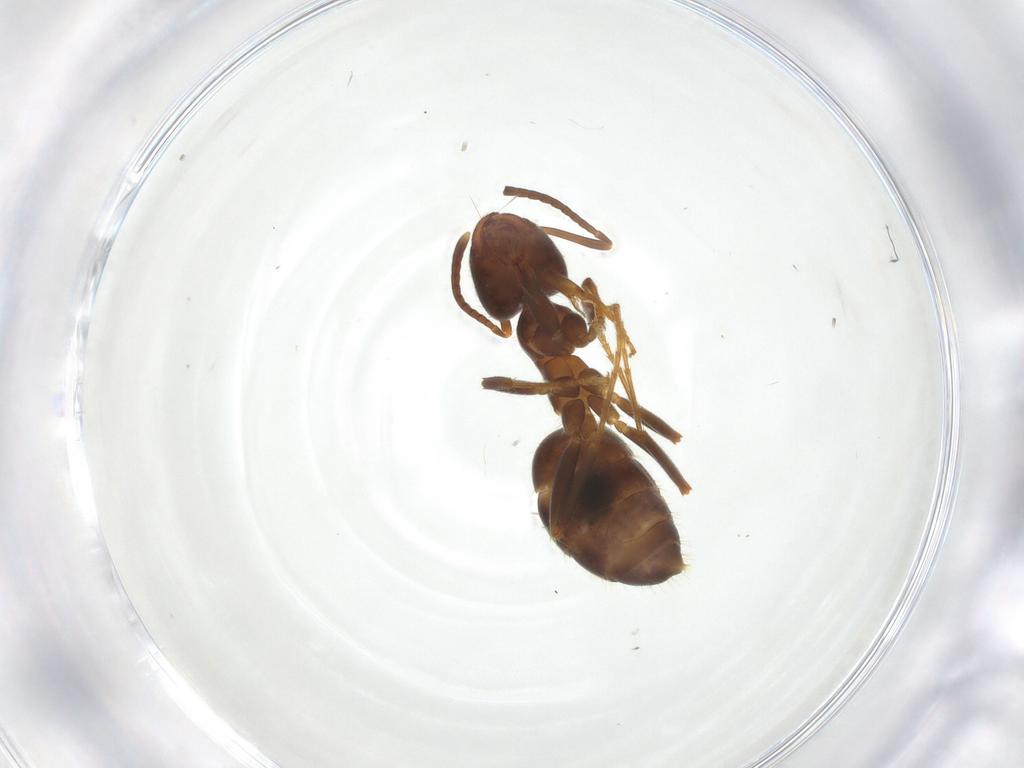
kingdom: Animalia
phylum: Arthropoda
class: Insecta
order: Hymenoptera
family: Formicidae
